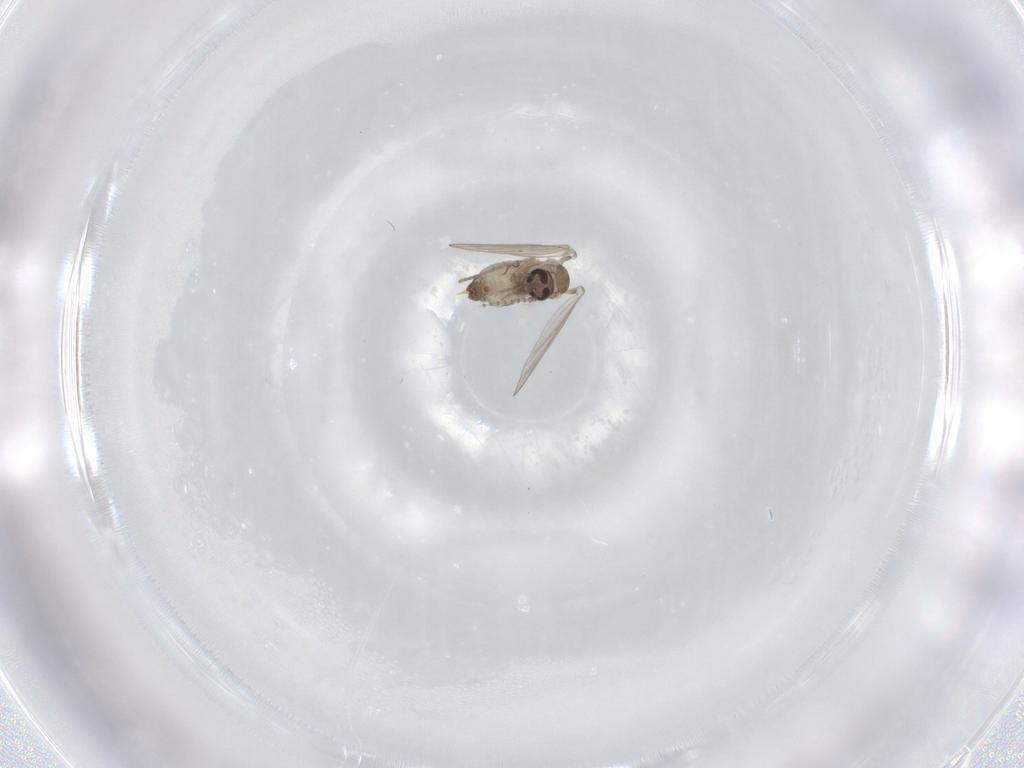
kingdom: Animalia
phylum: Arthropoda
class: Insecta
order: Diptera
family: Psychodidae
